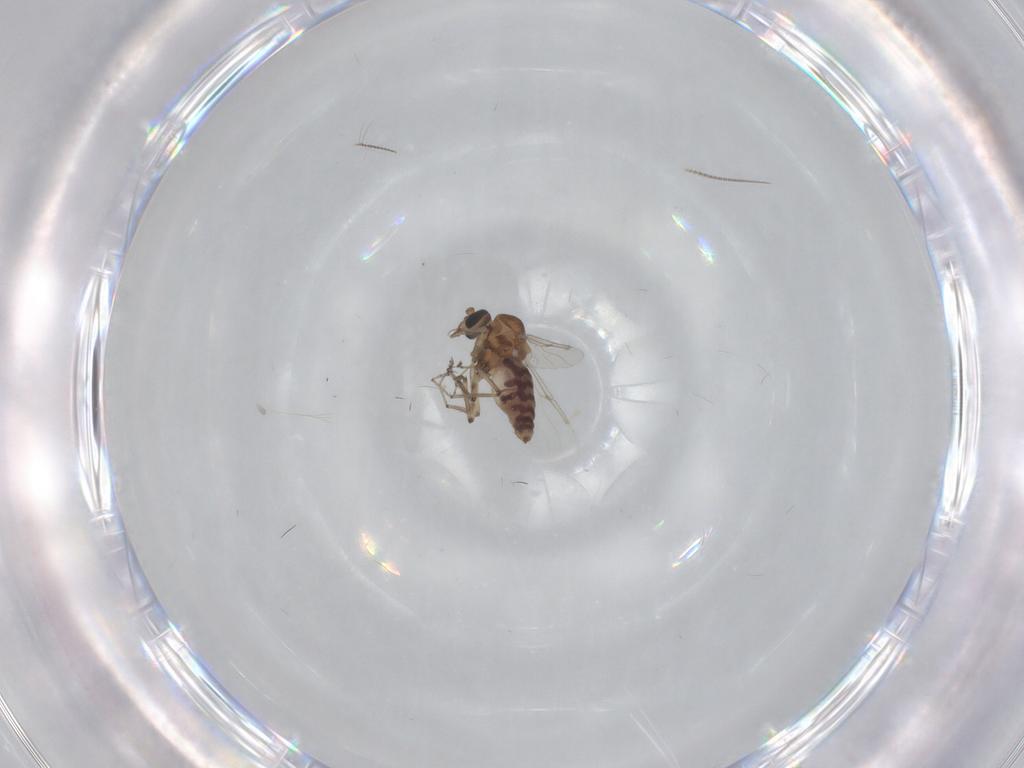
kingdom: Animalia
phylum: Arthropoda
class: Insecta
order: Diptera
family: Ceratopogonidae
